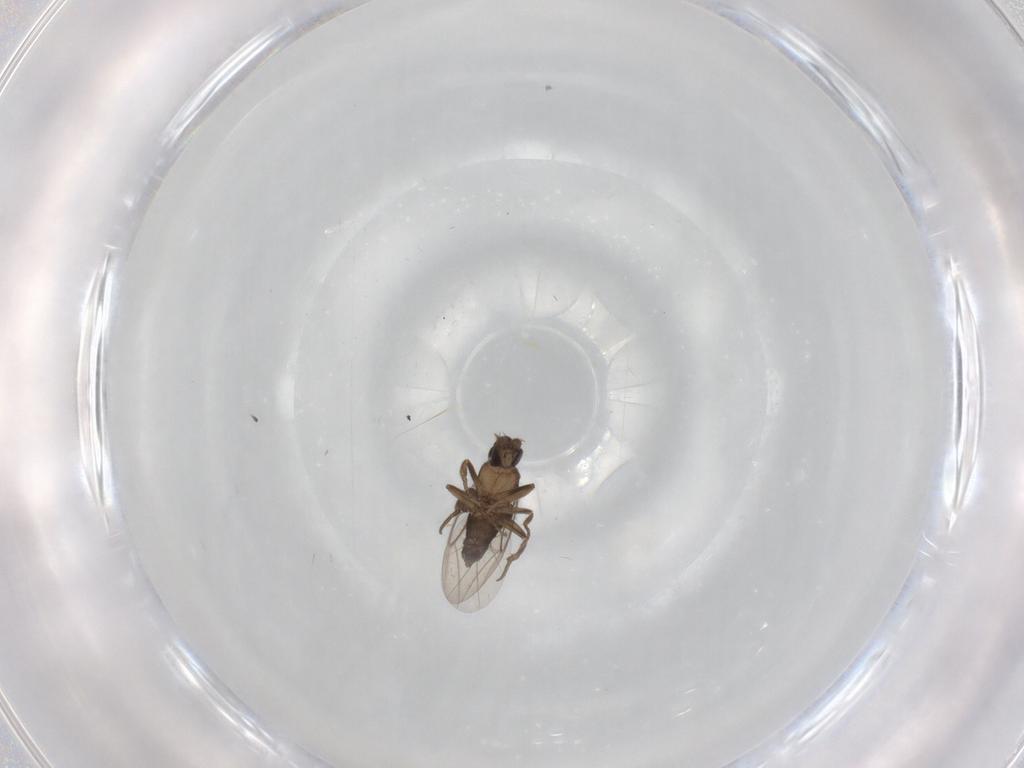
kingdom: Animalia
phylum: Arthropoda
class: Insecta
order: Diptera
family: Phoridae
